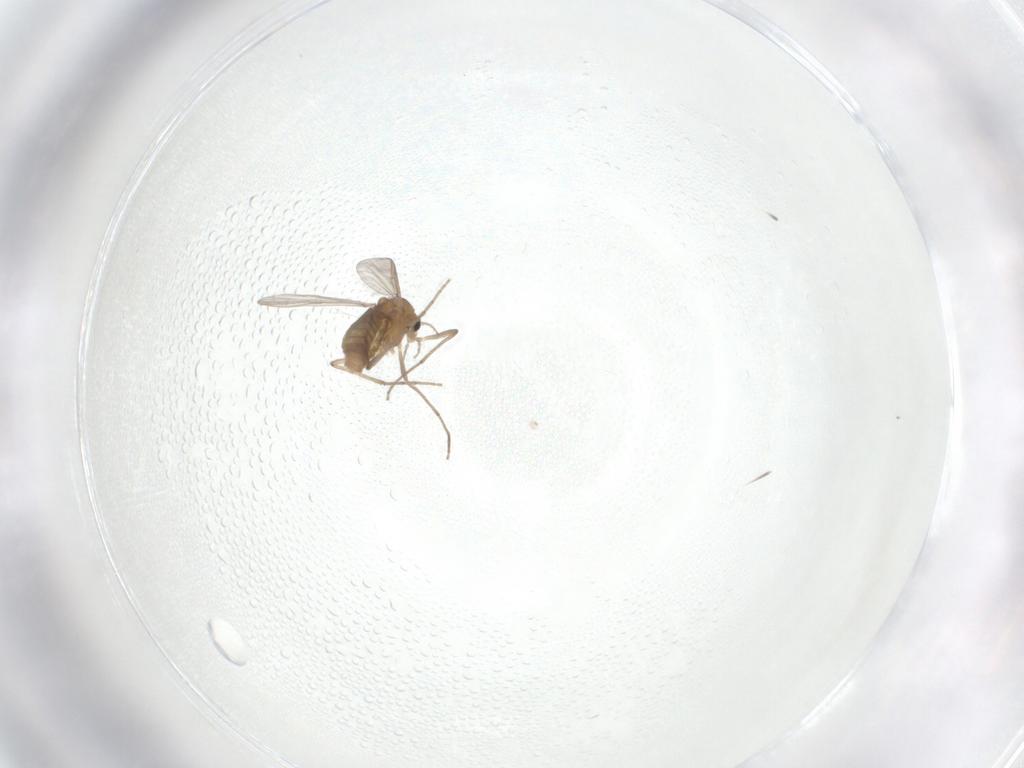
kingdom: Animalia
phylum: Arthropoda
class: Insecta
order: Diptera
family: Chironomidae
